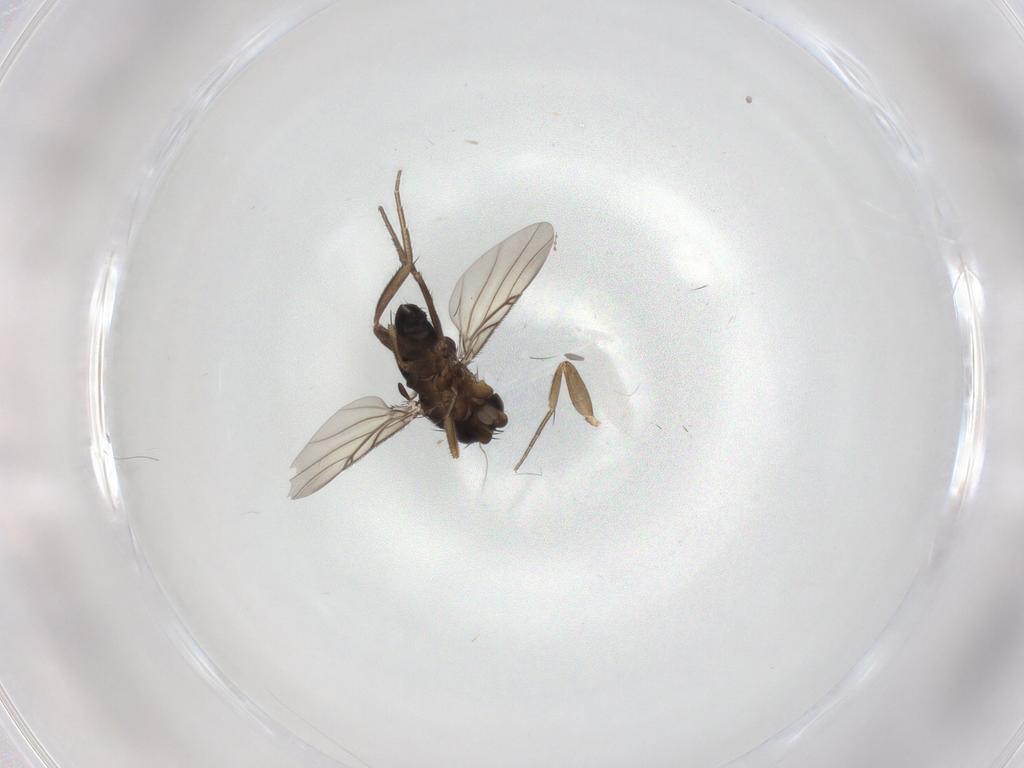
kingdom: Animalia
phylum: Arthropoda
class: Insecta
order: Diptera
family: Phoridae
